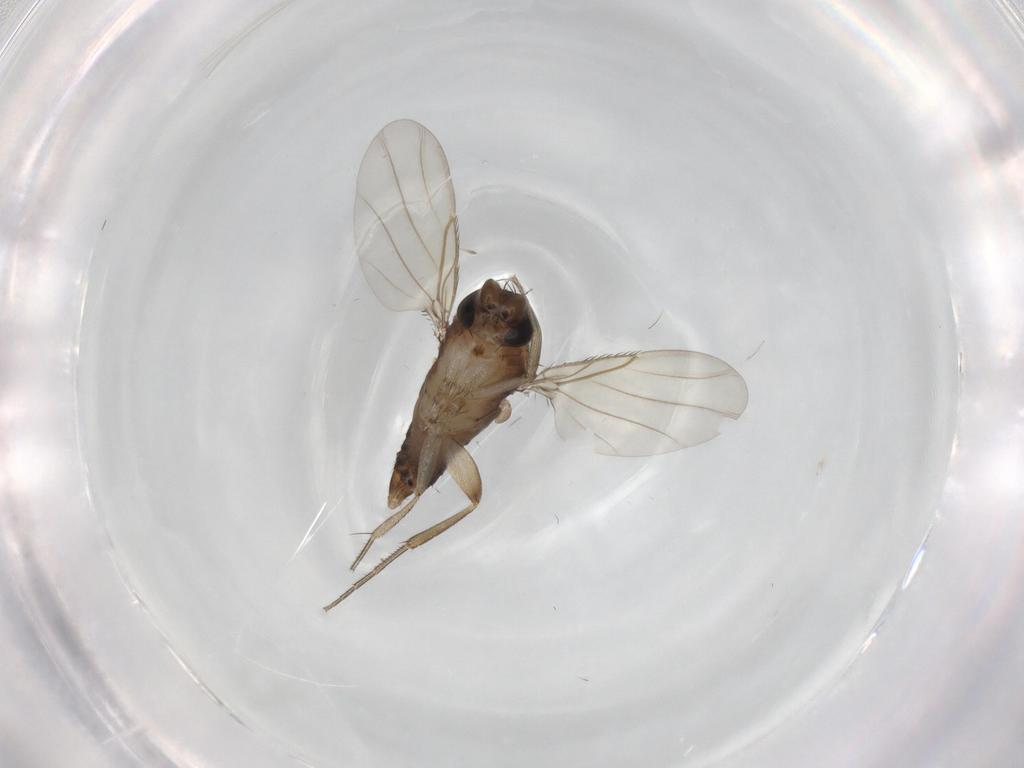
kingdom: Animalia
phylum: Arthropoda
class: Insecta
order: Diptera
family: Phoridae
